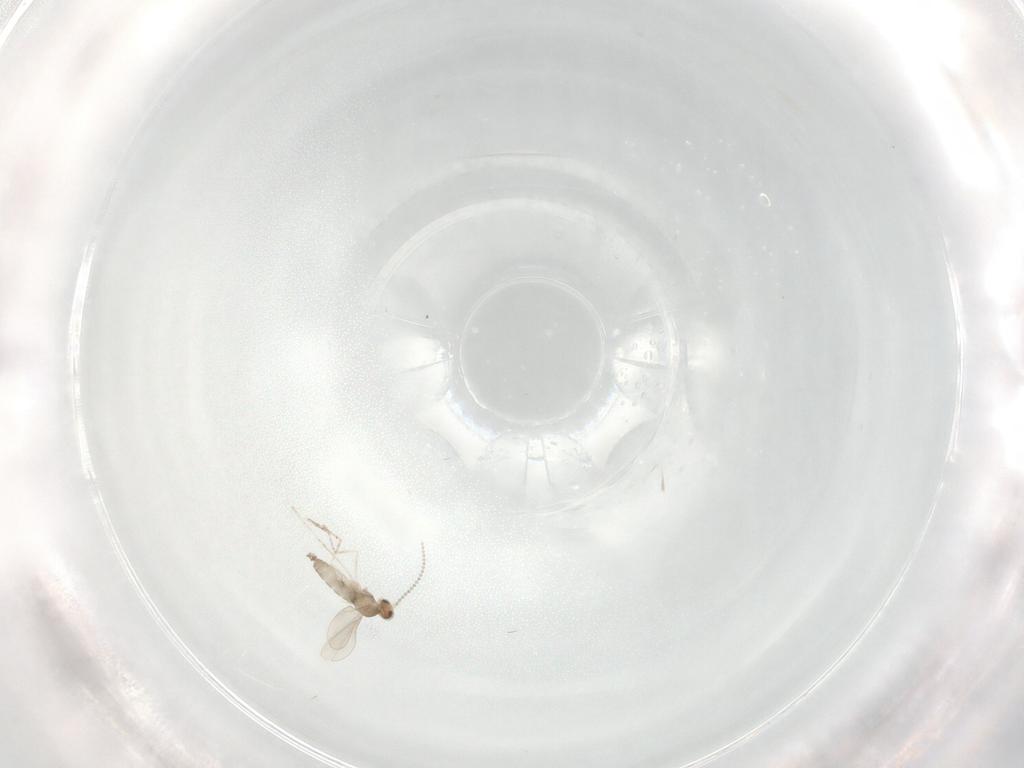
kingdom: Animalia
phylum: Arthropoda
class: Insecta
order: Diptera
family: Cecidomyiidae
